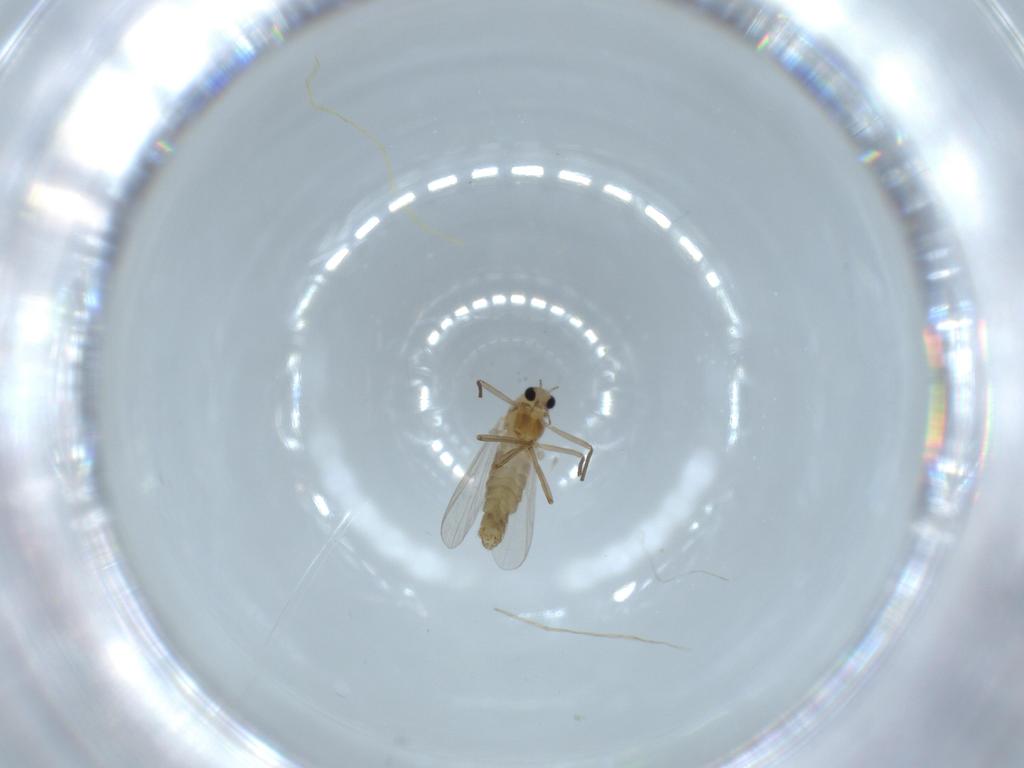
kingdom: Animalia
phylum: Arthropoda
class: Insecta
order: Diptera
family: Chironomidae
